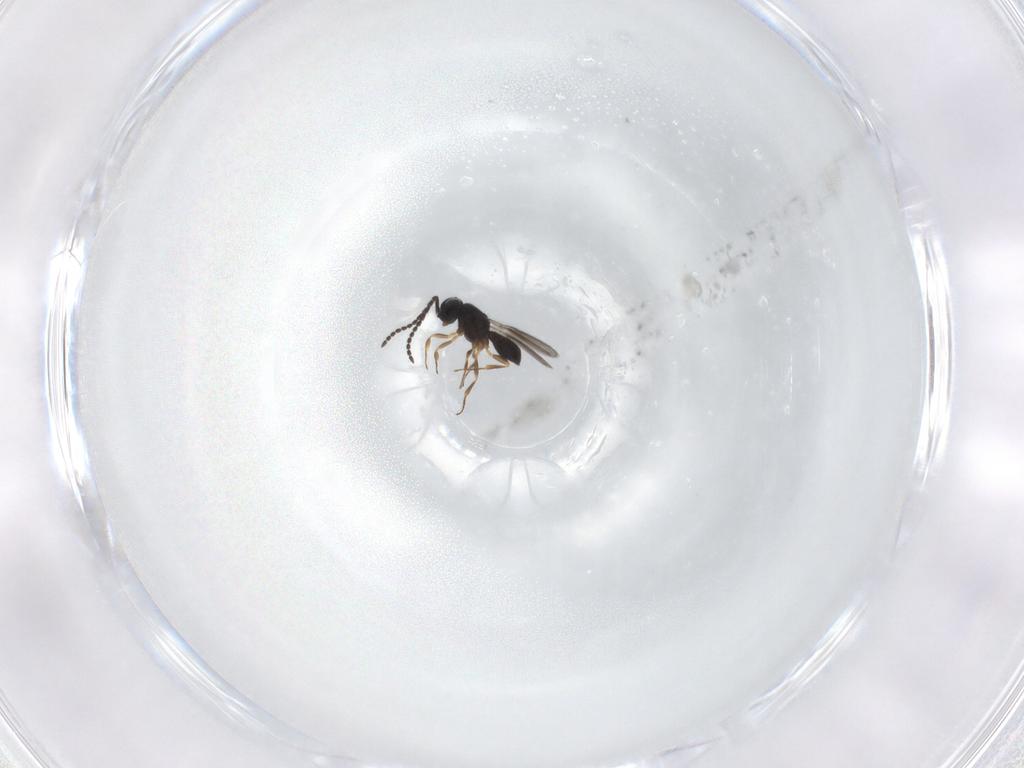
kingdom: Animalia
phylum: Arthropoda
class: Insecta
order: Hymenoptera
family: Scelionidae
